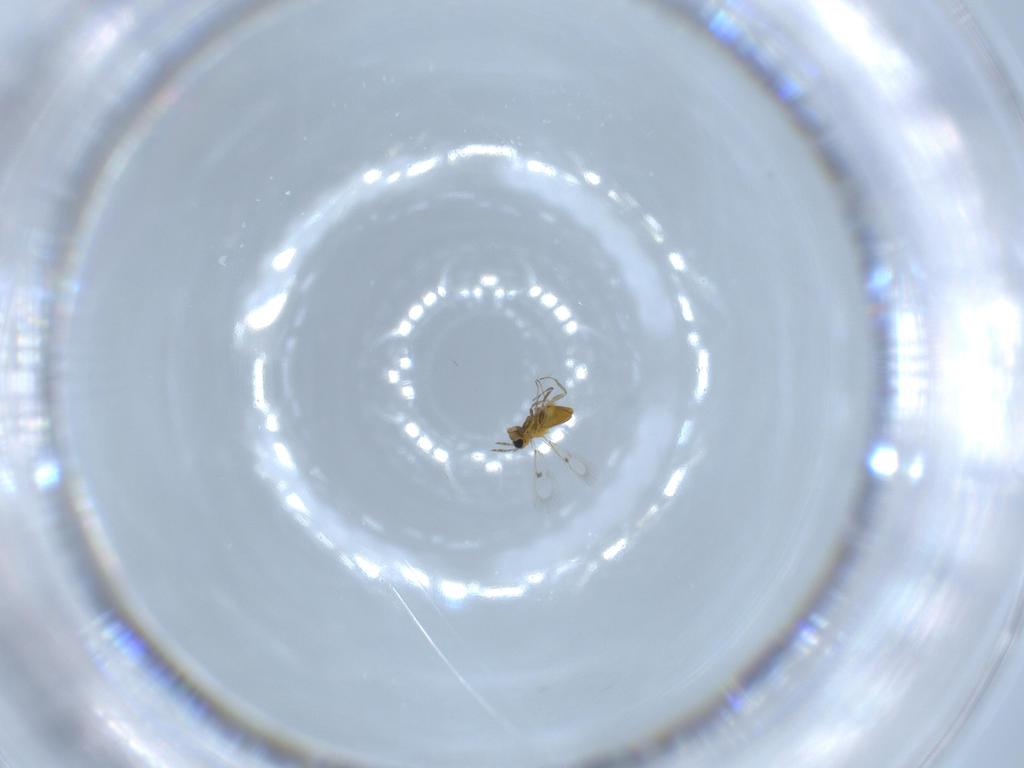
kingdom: Animalia
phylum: Arthropoda
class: Insecta
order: Hymenoptera
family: Trichogrammatidae
